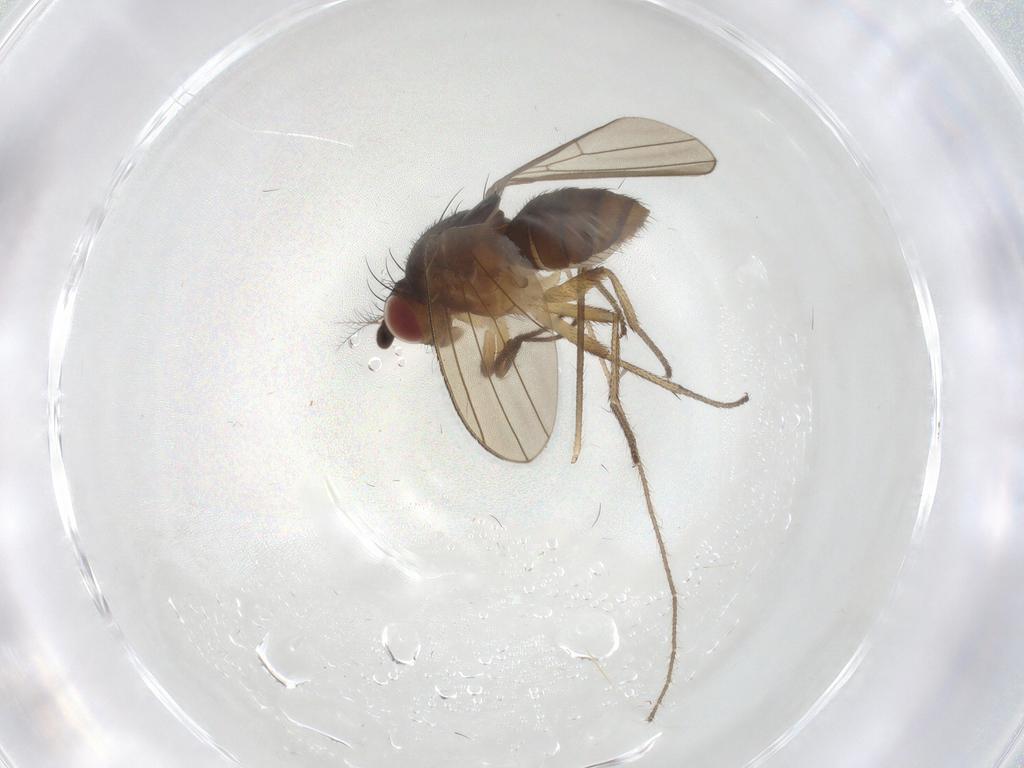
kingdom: Animalia
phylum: Arthropoda
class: Insecta
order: Diptera
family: Limoniidae
